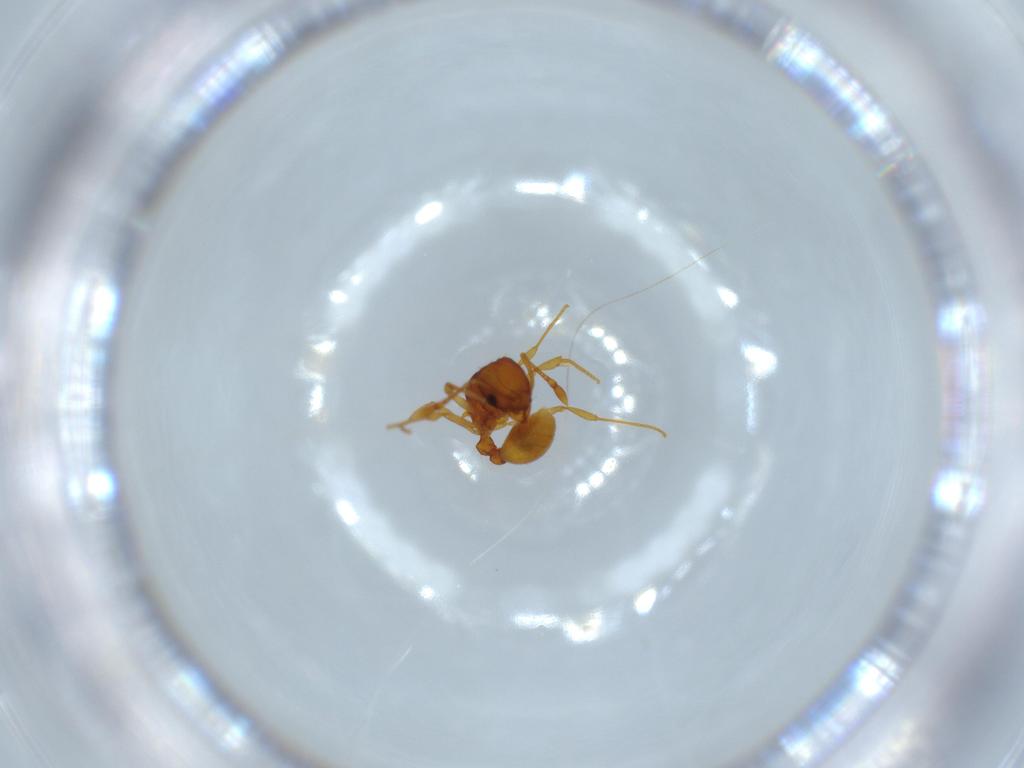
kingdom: Animalia
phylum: Arthropoda
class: Insecta
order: Hymenoptera
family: Formicidae
